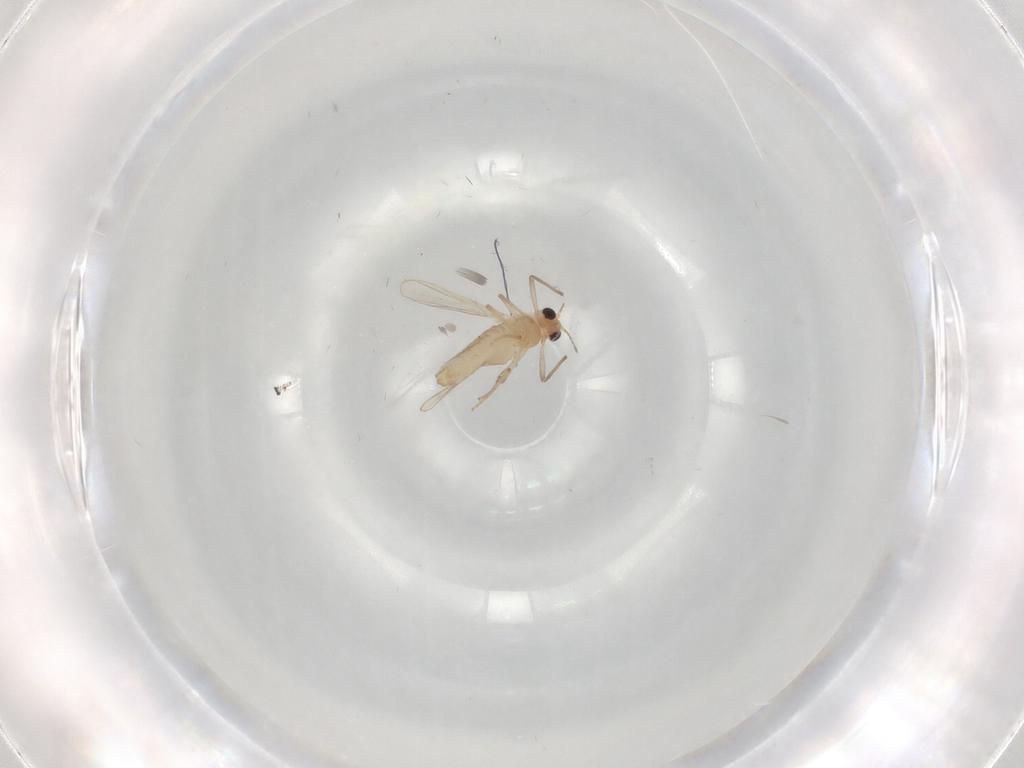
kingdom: Animalia
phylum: Arthropoda
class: Insecta
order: Diptera
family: Chironomidae
